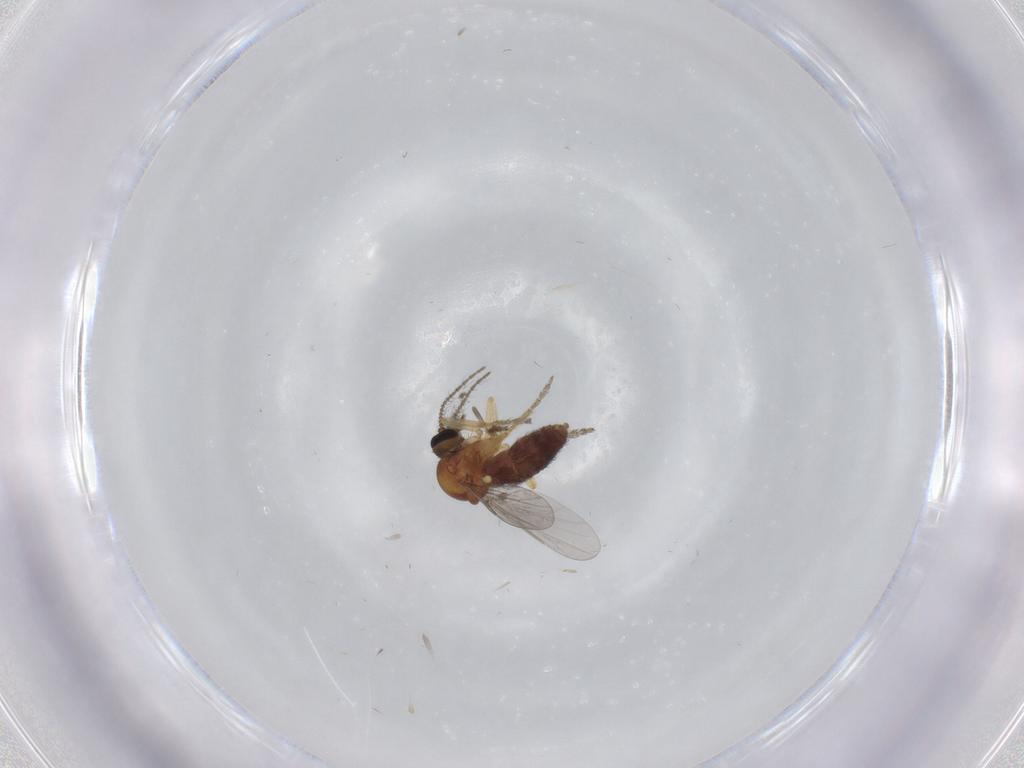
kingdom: Animalia
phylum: Arthropoda
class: Insecta
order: Diptera
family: Ceratopogonidae
